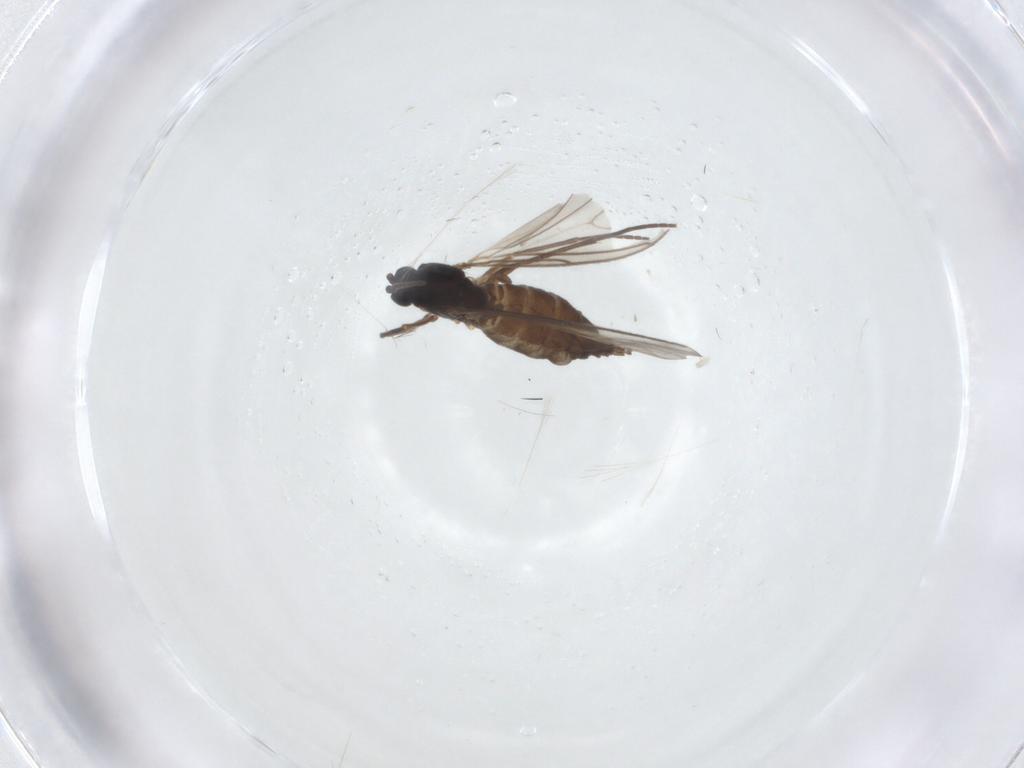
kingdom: Animalia
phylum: Arthropoda
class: Insecta
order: Diptera
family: Sciaridae
